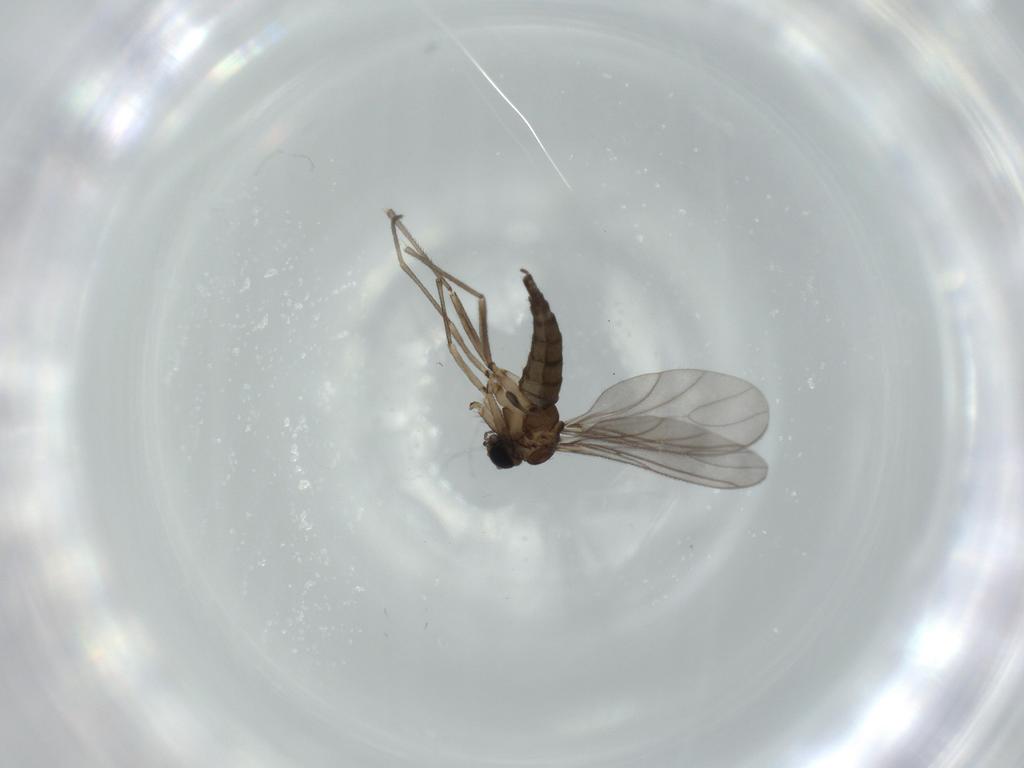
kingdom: Animalia
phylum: Arthropoda
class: Insecta
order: Diptera
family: Sciaridae
